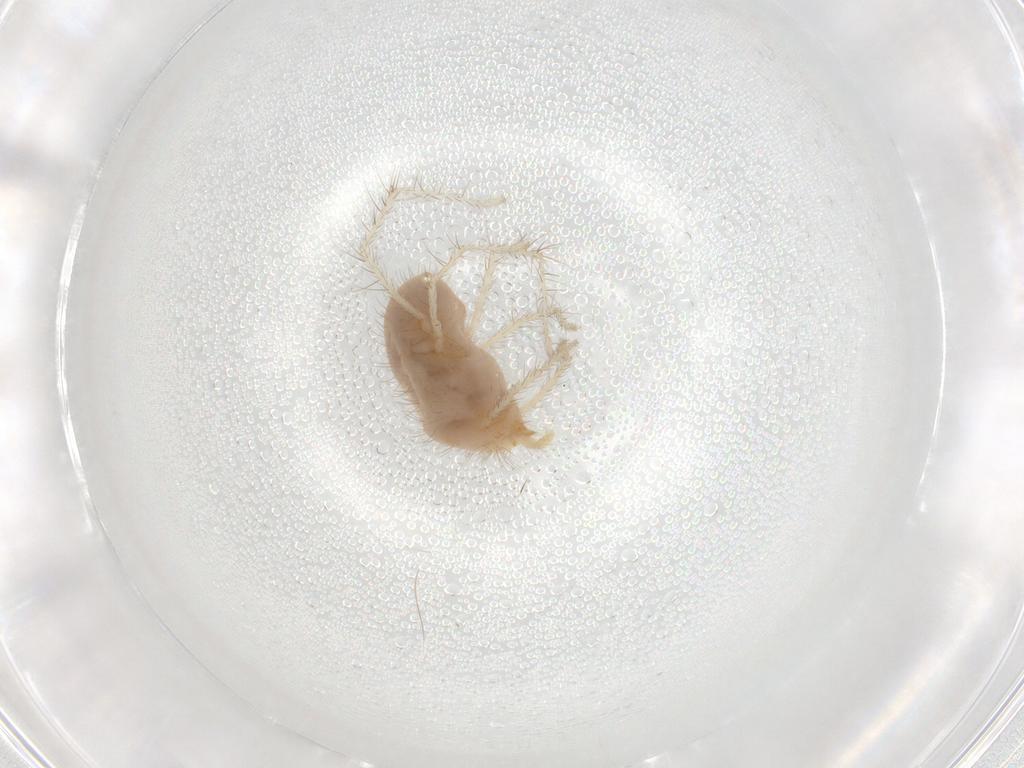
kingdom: Animalia
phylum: Arthropoda
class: Arachnida
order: Trombidiformes
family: Erythraeidae
